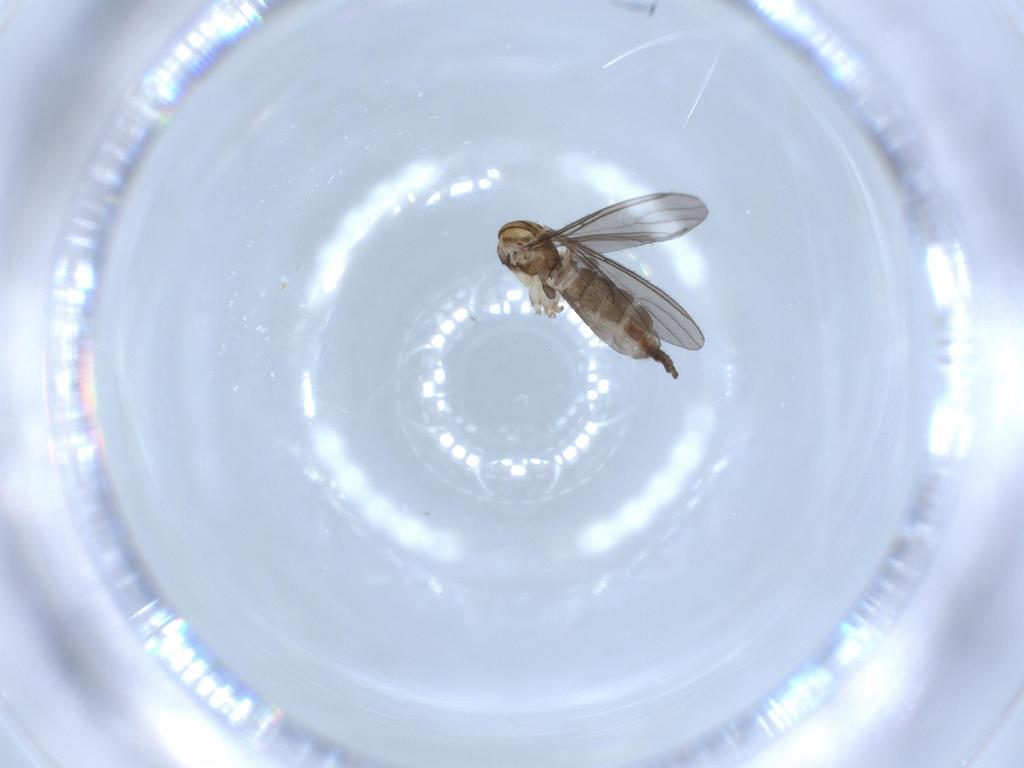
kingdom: Animalia
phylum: Arthropoda
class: Insecta
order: Diptera
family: Sciaridae
